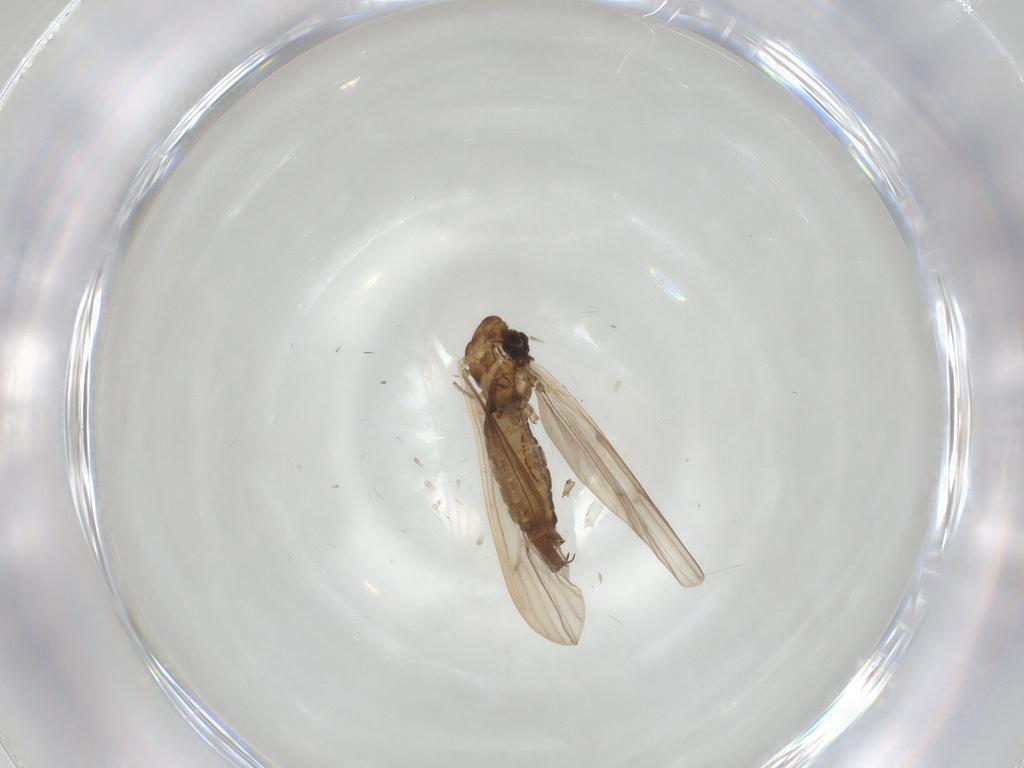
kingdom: Animalia
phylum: Arthropoda
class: Insecta
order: Diptera
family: Limoniidae
